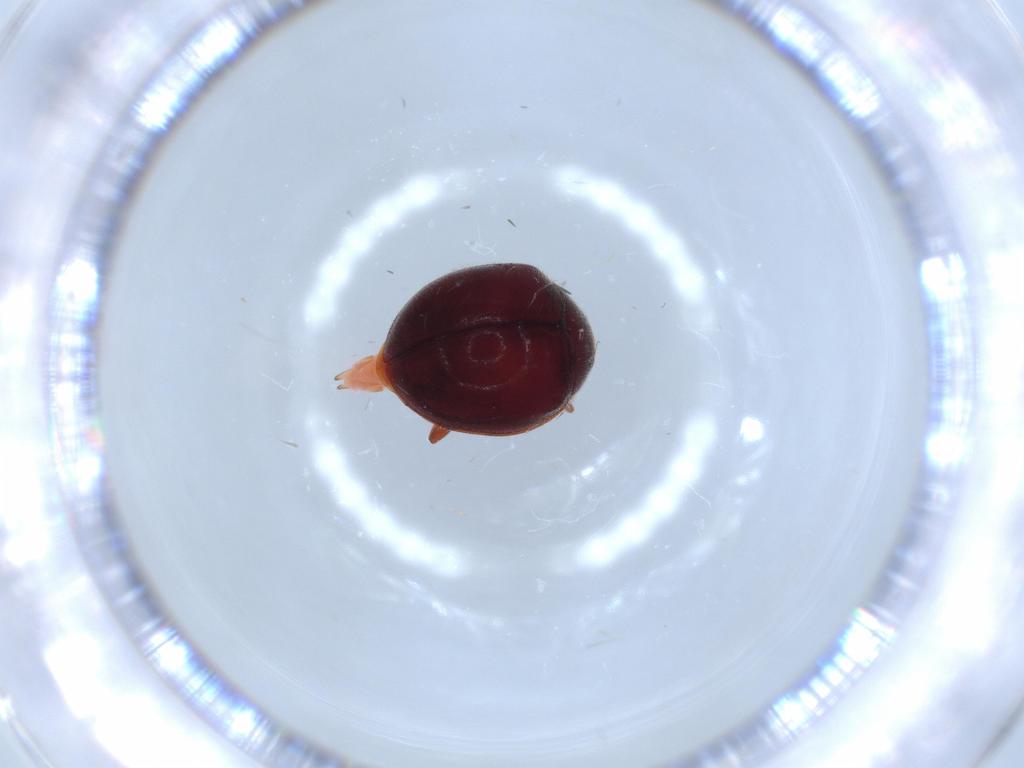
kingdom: Animalia
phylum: Arthropoda
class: Insecta
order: Coleoptera
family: Coccinellidae
